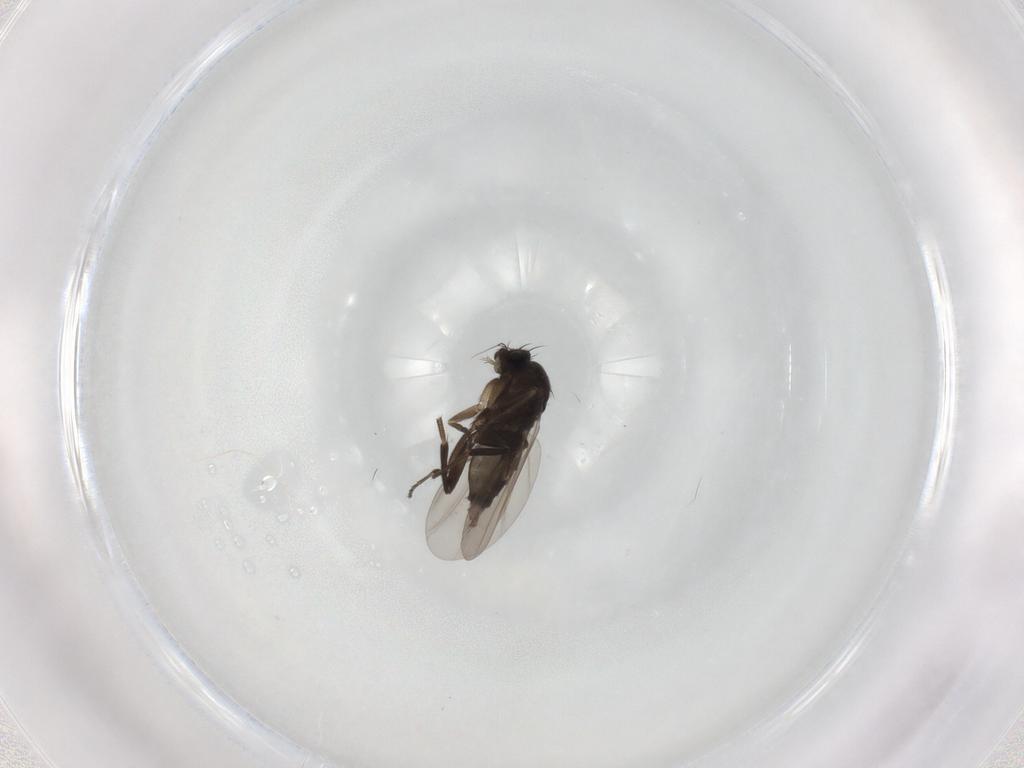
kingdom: Animalia
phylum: Arthropoda
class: Insecta
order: Diptera
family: Phoridae
